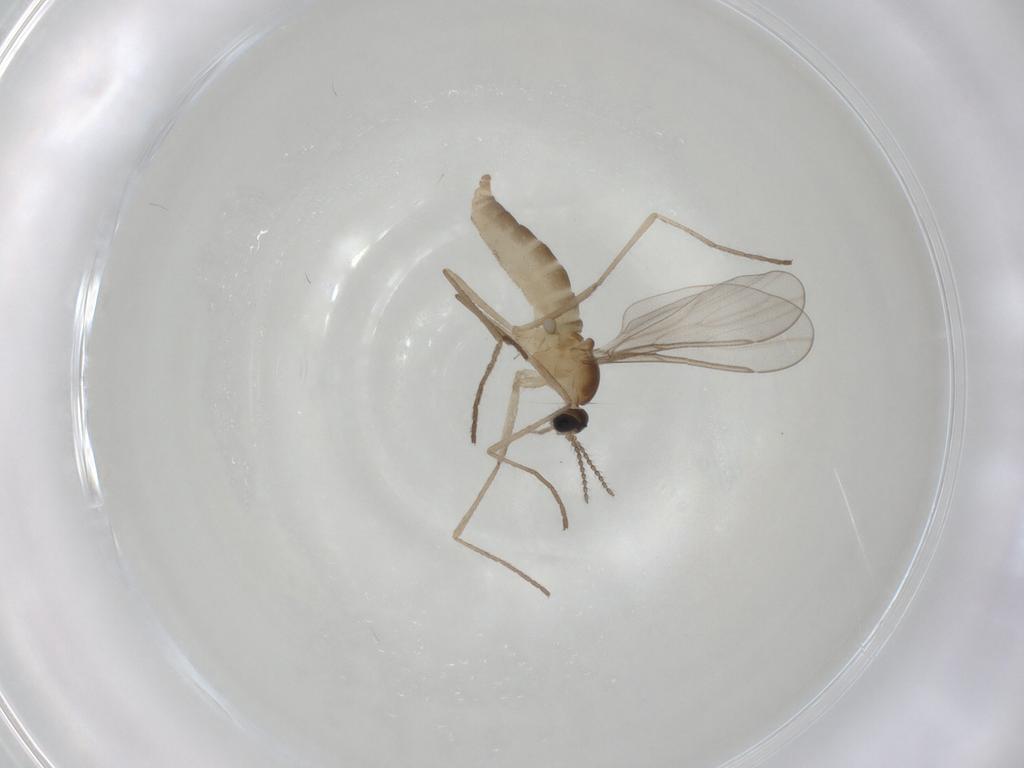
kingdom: Animalia
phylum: Arthropoda
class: Insecta
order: Diptera
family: Cecidomyiidae
